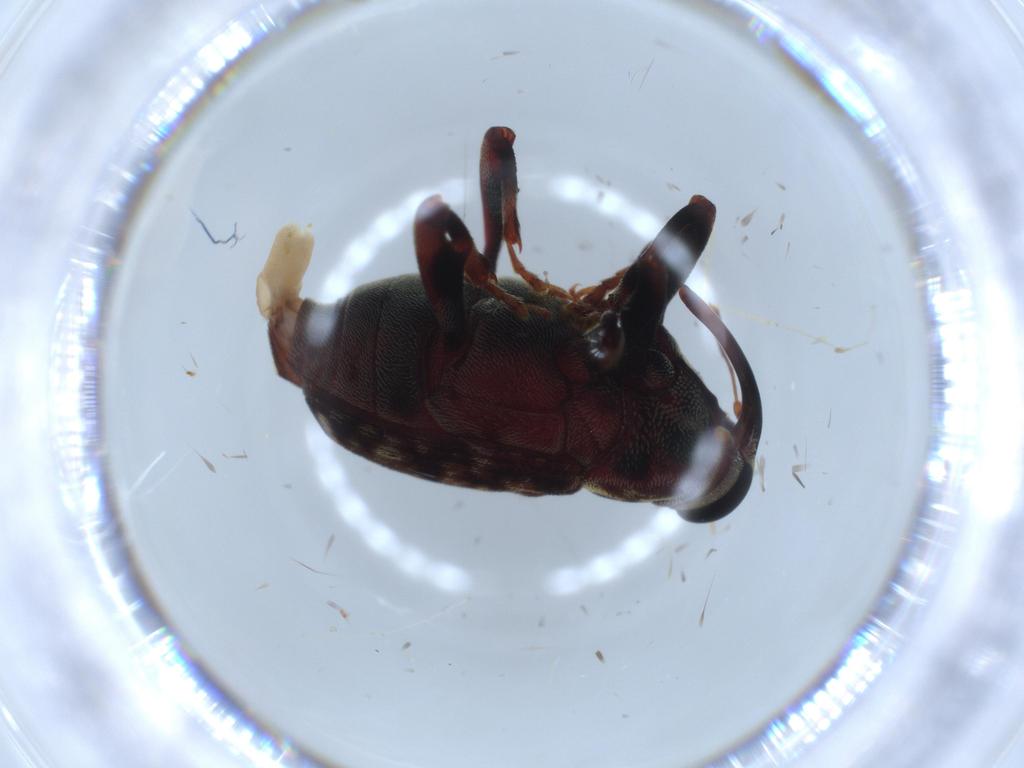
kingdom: Animalia
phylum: Arthropoda
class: Insecta
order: Coleoptera
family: Curculionidae
